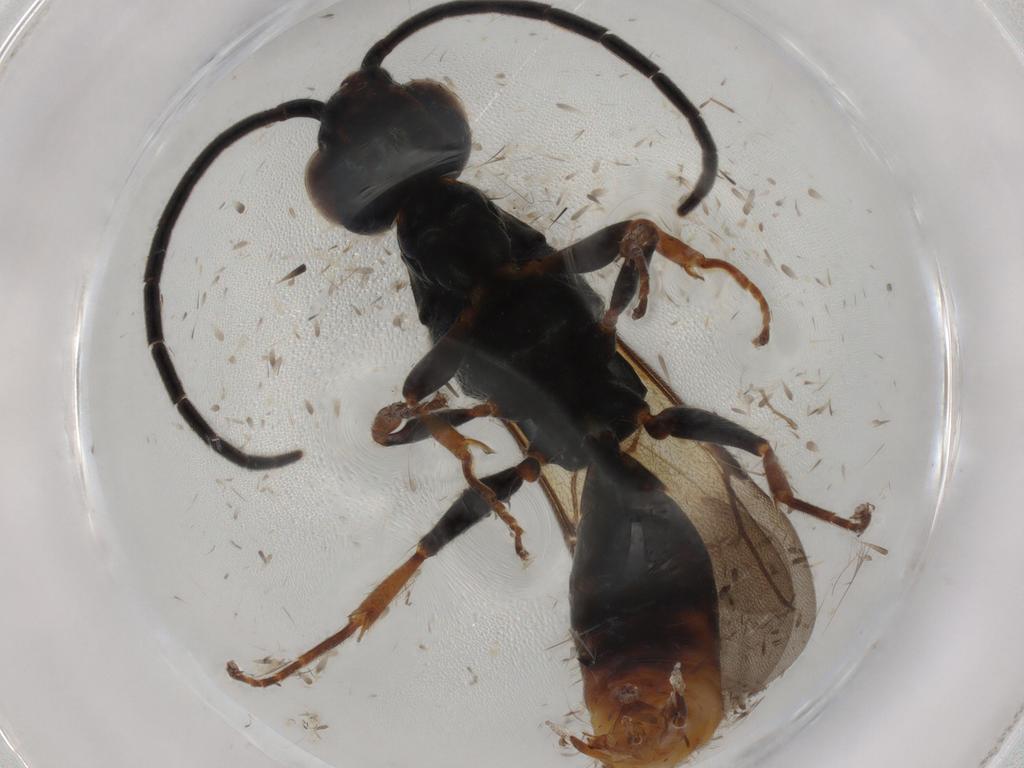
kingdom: Animalia
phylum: Arthropoda
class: Insecta
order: Hymenoptera
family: Bethylidae
